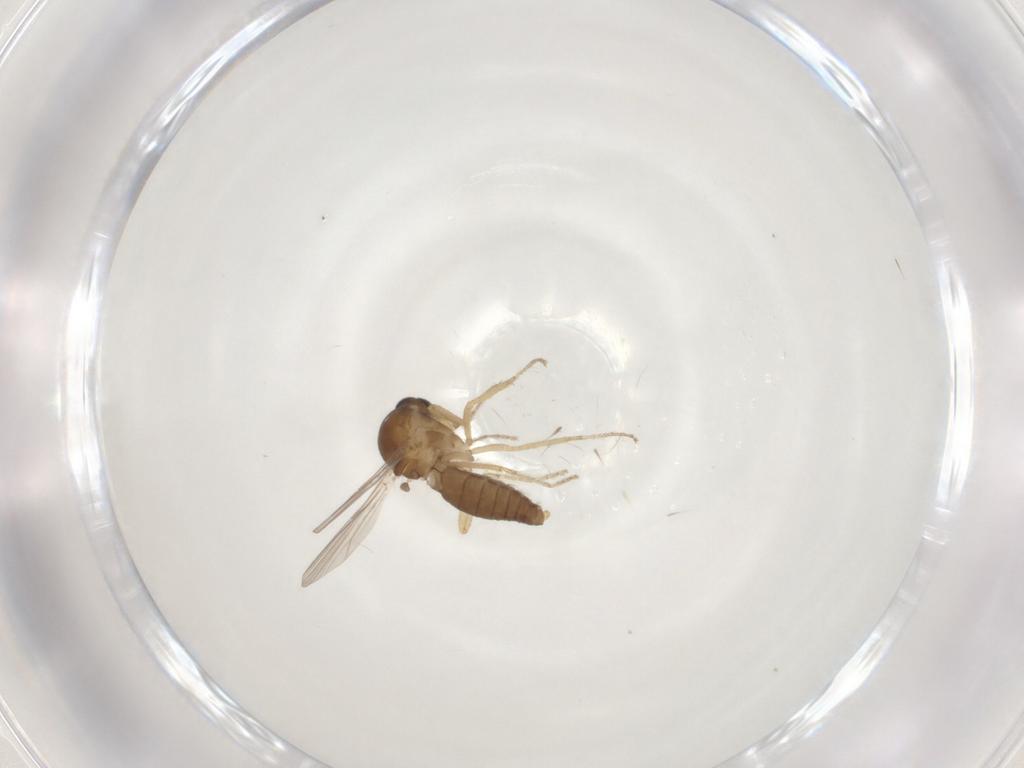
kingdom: Animalia
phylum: Arthropoda
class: Insecta
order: Diptera
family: Ceratopogonidae
